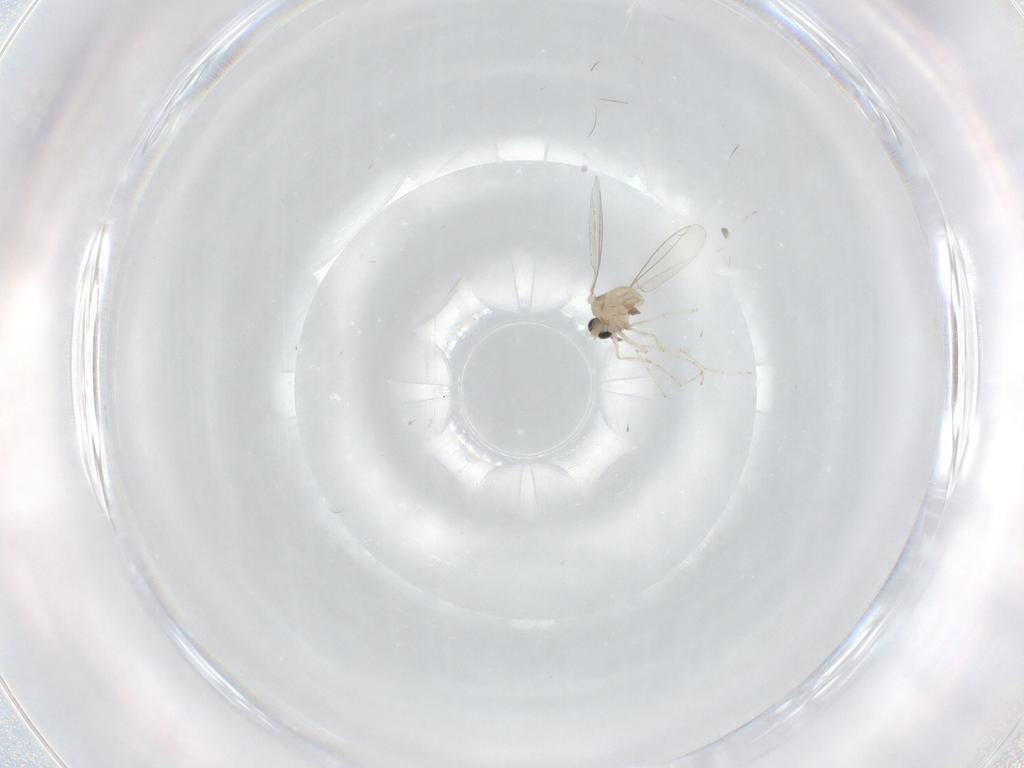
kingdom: Animalia
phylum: Arthropoda
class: Insecta
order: Diptera
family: Cecidomyiidae
